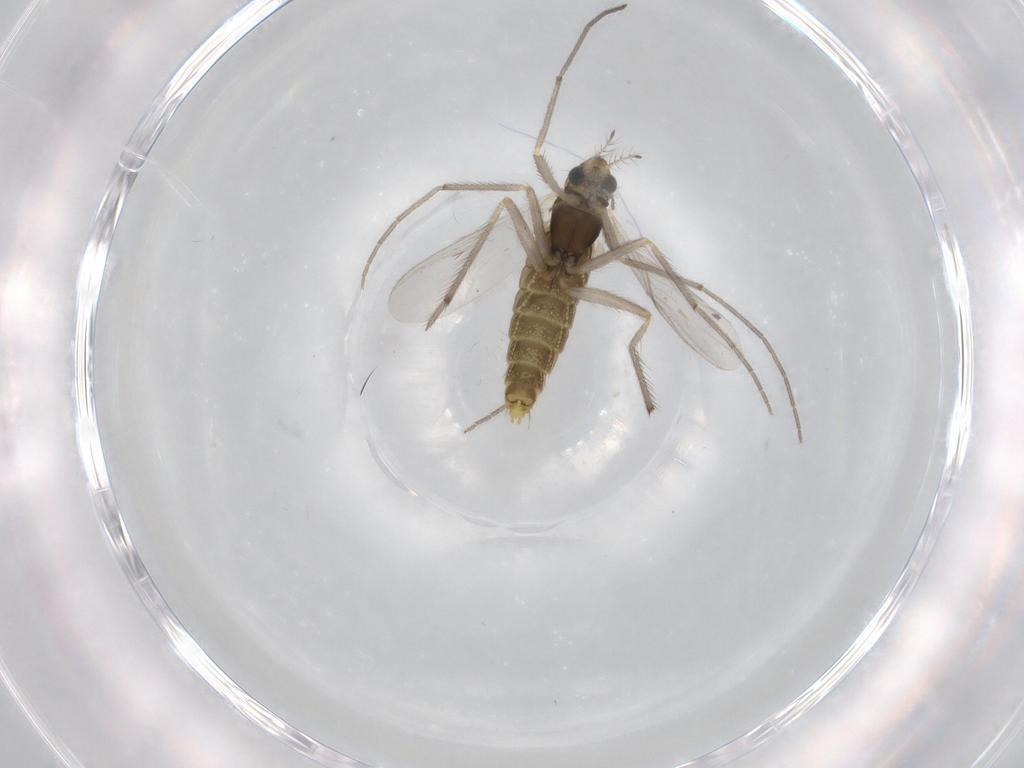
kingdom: Animalia
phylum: Arthropoda
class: Insecta
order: Diptera
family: Chironomidae
